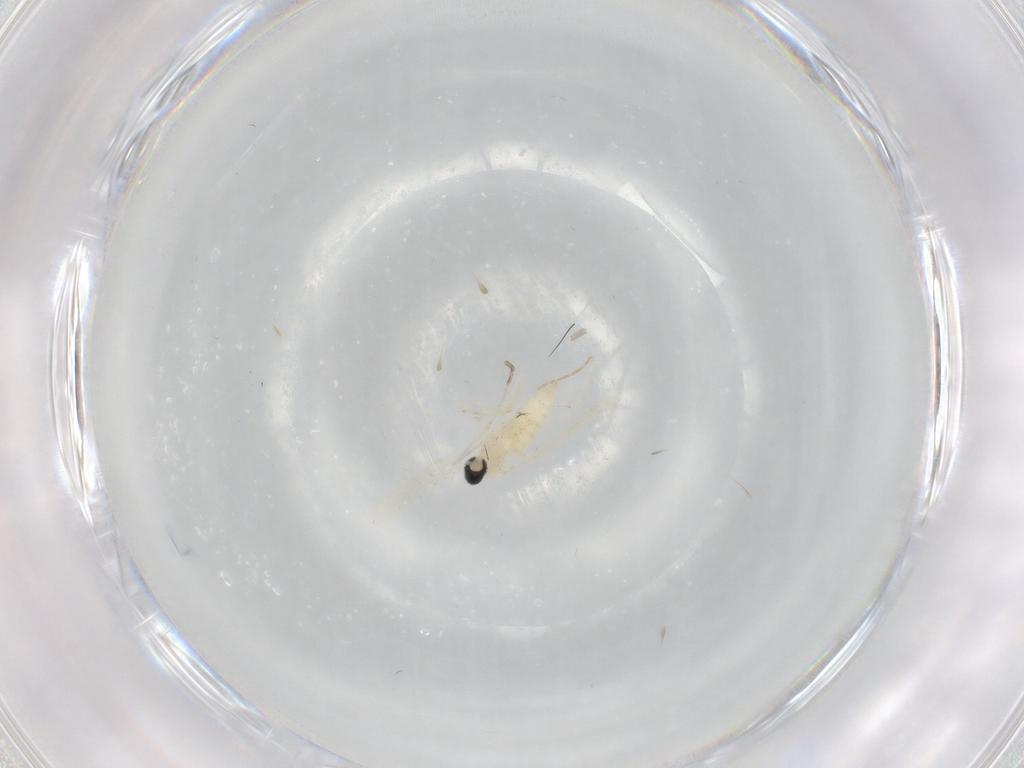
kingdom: Animalia
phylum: Arthropoda
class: Insecta
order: Diptera
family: Cecidomyiidae
